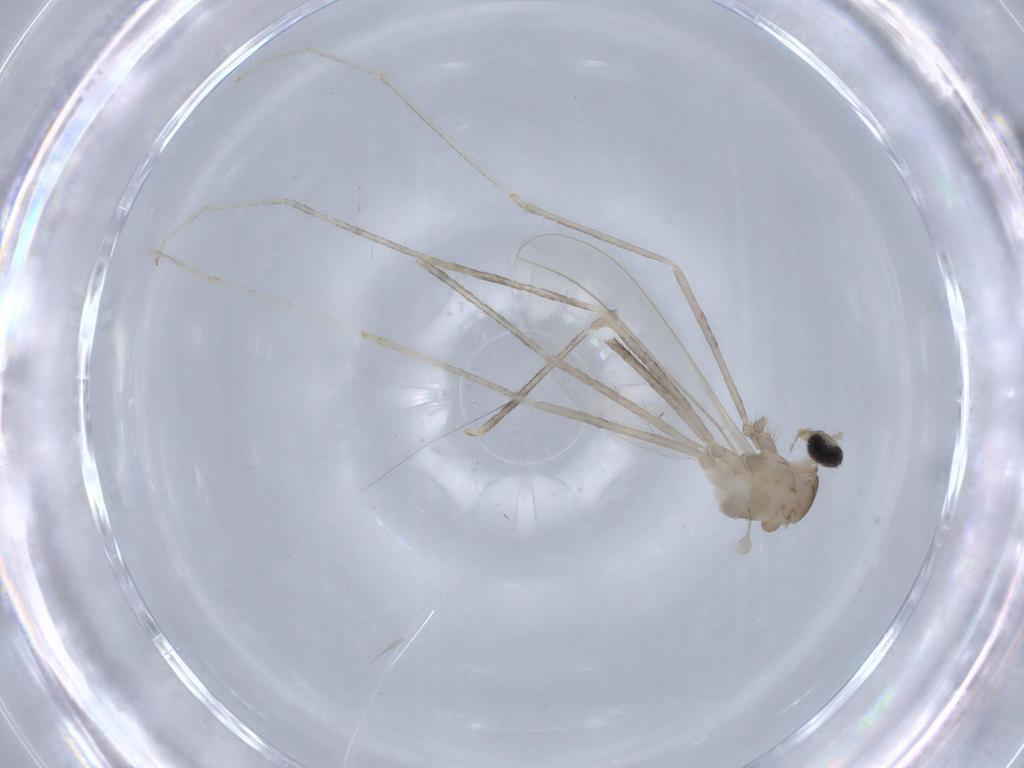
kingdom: Animalia
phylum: Arthropoda
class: Insecta
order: Diptera
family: Cecidomyiidae
